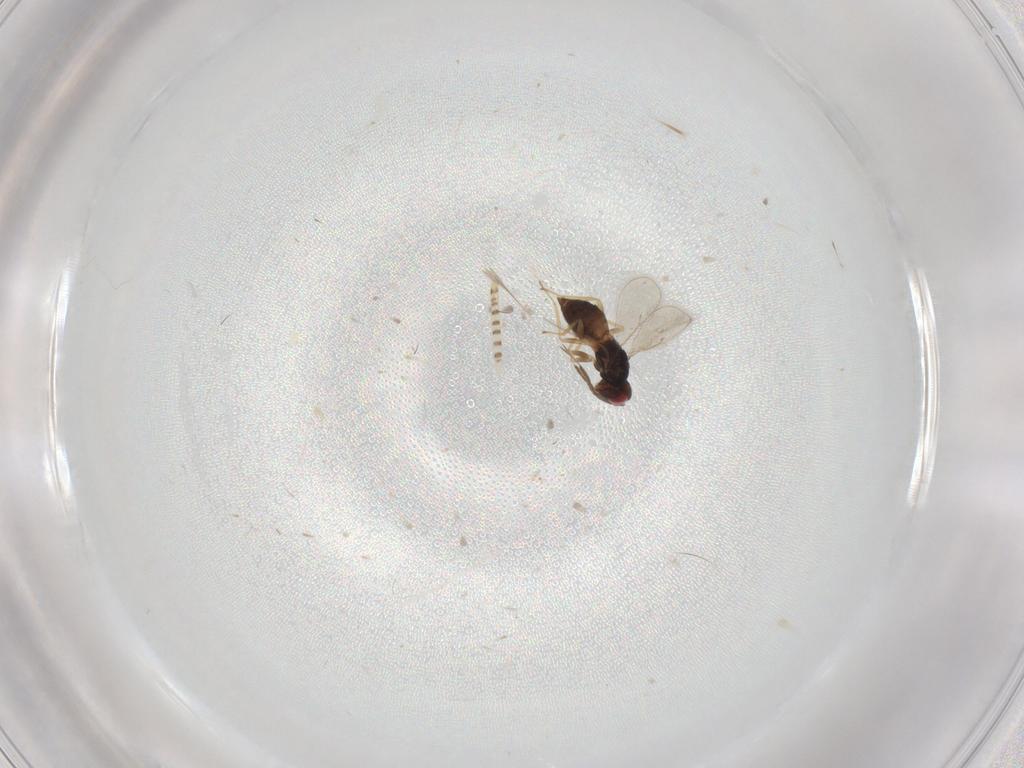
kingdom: Animalia
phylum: Arthropoda
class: Insecta
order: Hymenoptera
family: Eulophidae
